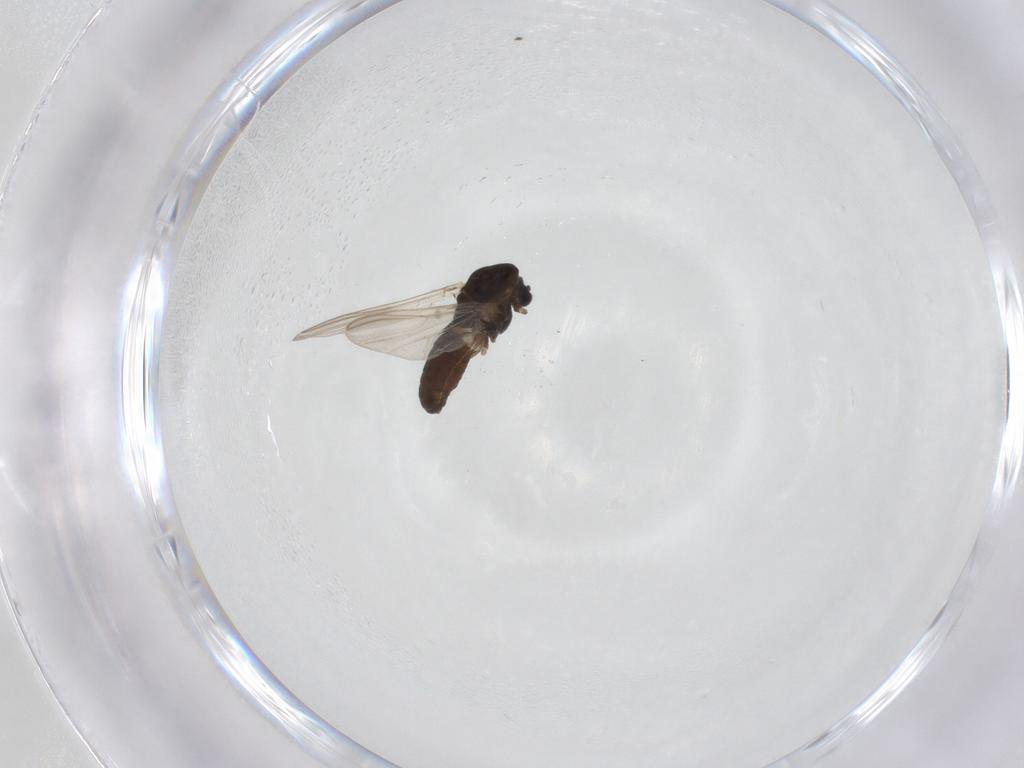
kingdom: Animalia
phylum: Arthropoda
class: Insecta
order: Diptera
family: Chironomidae
